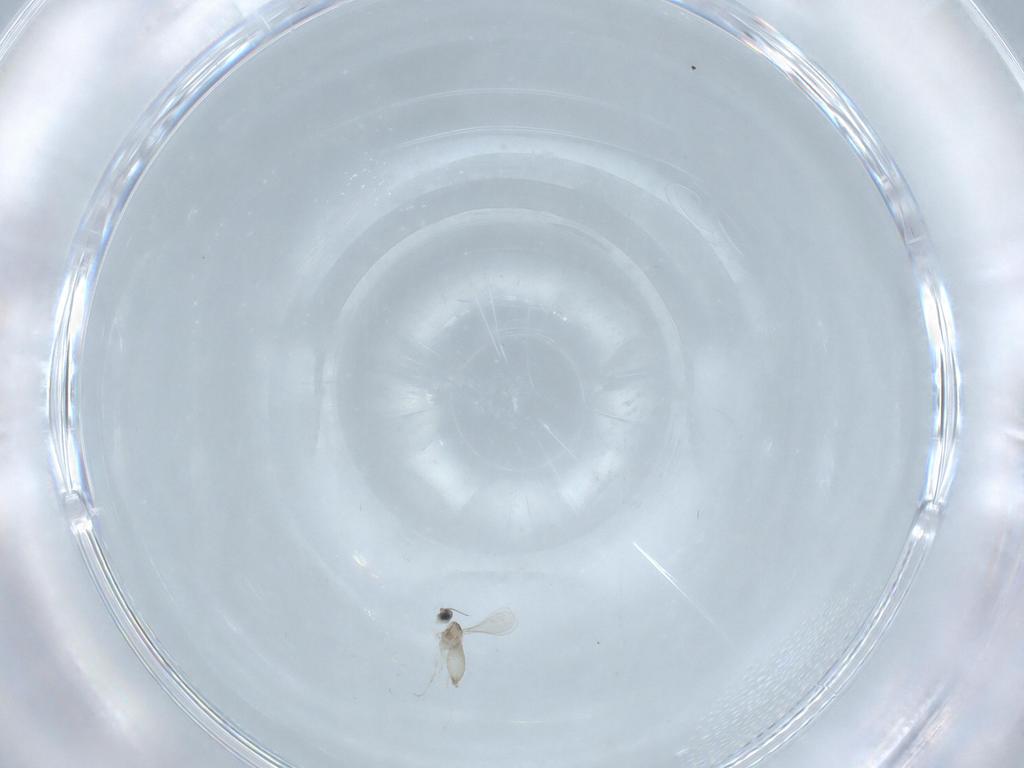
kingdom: Animalia
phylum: Arthropoda
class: Insecta
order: Diptera
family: Cecidomyiidae
